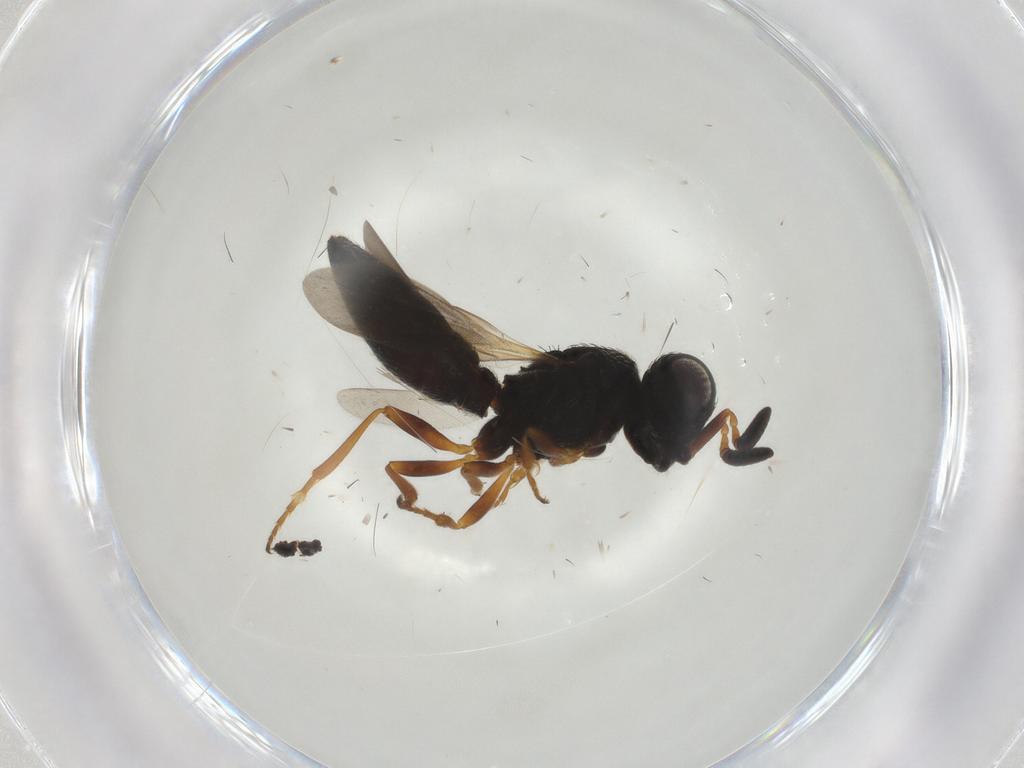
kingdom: Animalia
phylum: Arthropoda
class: Insecta
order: Hymenoptera
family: Scelionidae
